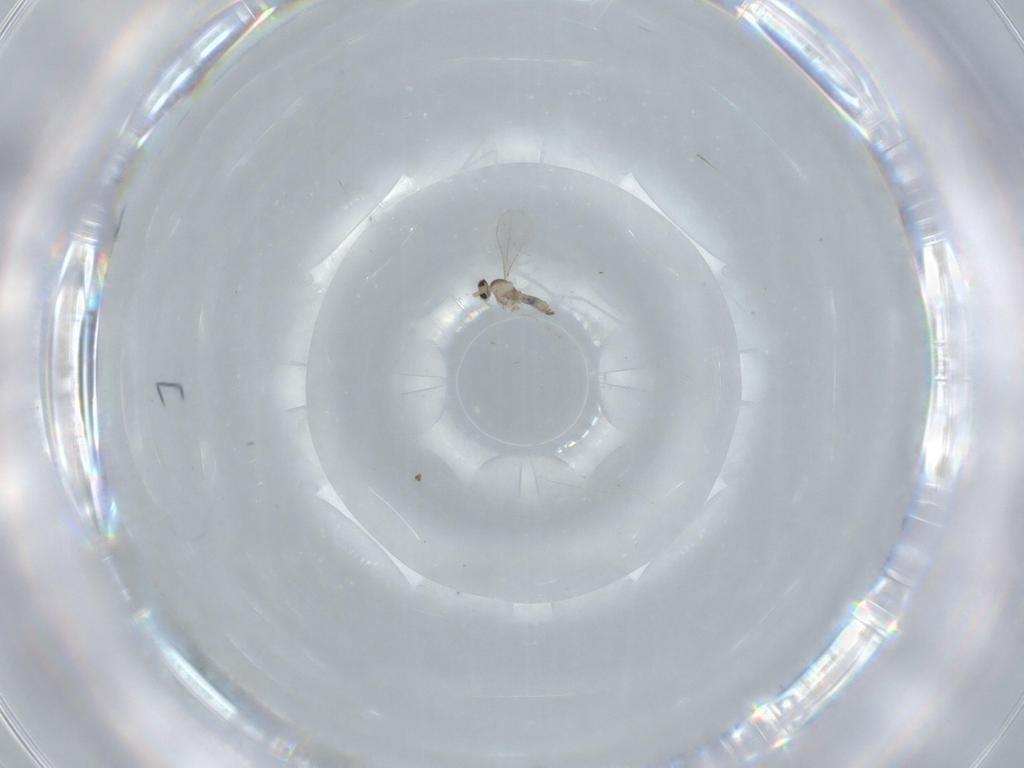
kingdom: Animalia
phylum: Arthropoda
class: Insecta
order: Diptera
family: Cecidomyiidae
